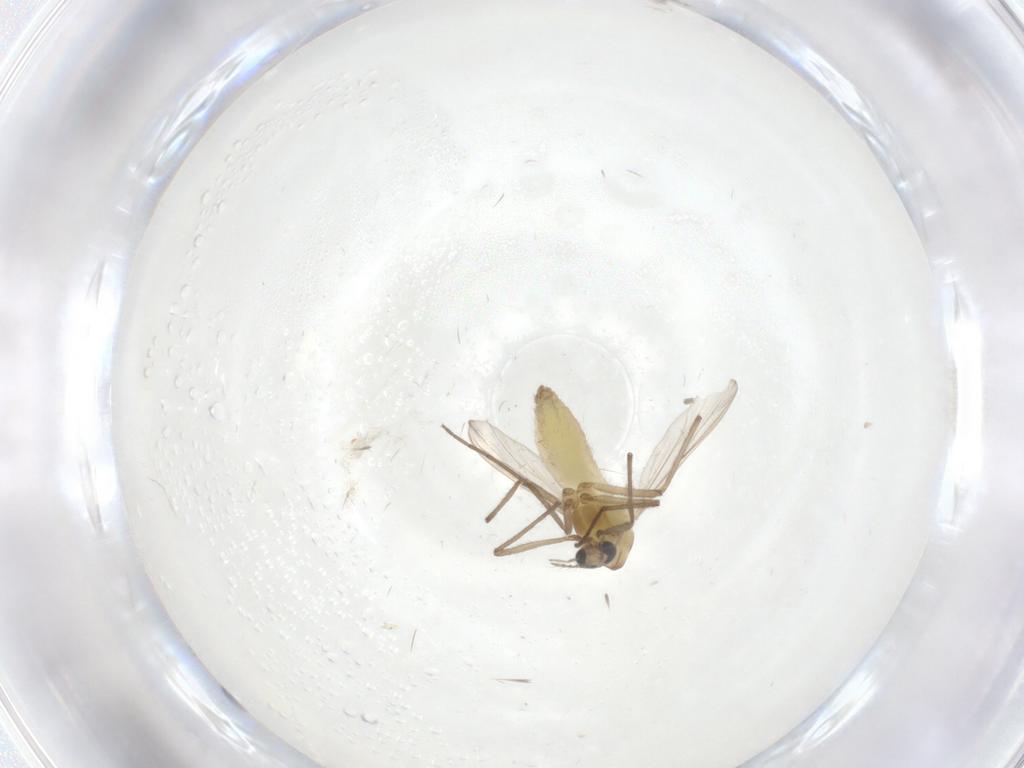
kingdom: Animalia
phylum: Arthropoda
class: Insecta
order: Diptera
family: Chironomidae
